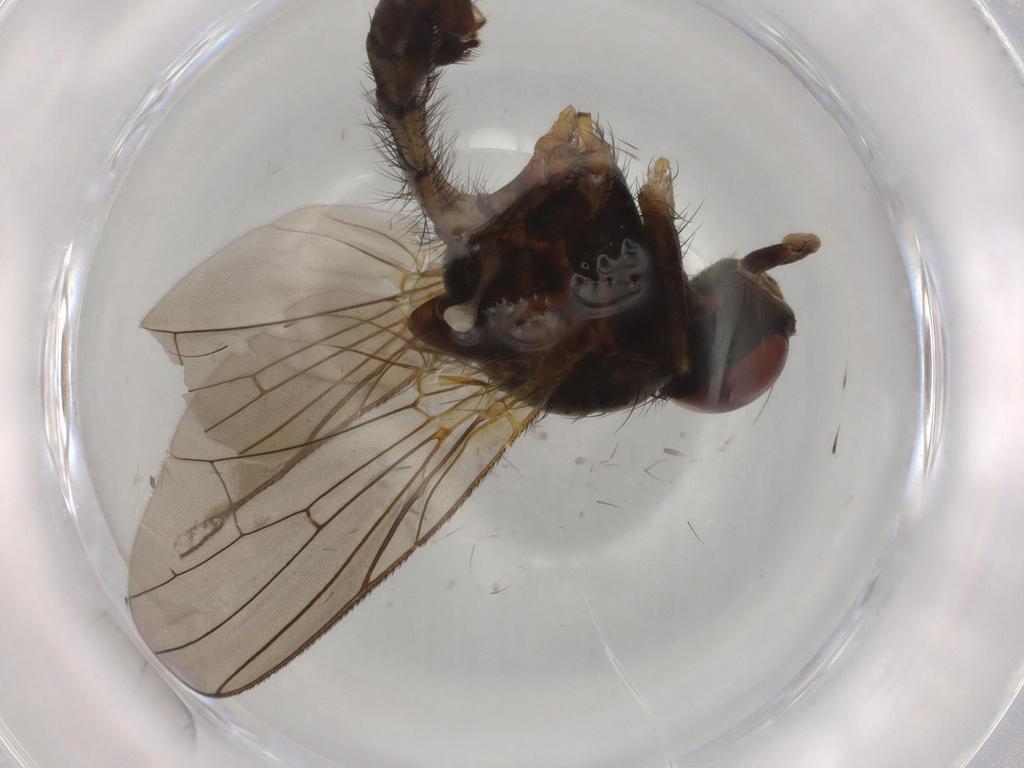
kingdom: Animalia
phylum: Arthropoda
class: Insecta
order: Diptera
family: Anthomyiidae
